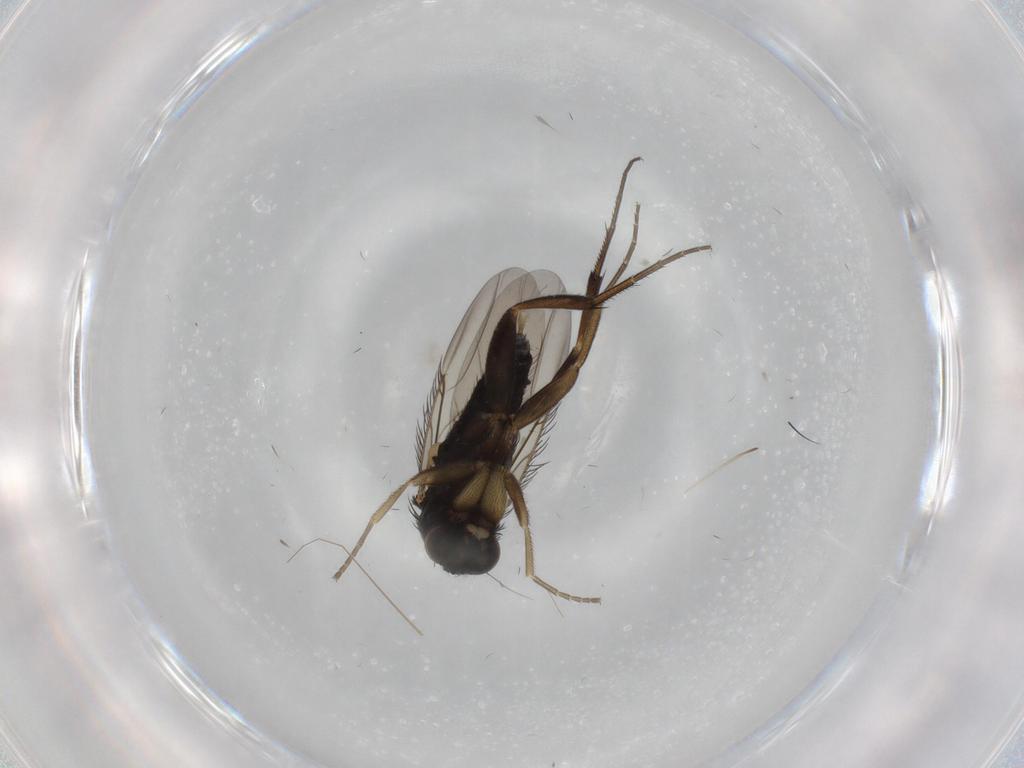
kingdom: Animalia
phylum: Arthropoda
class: Insecta
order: Diptera
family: Phoridae
